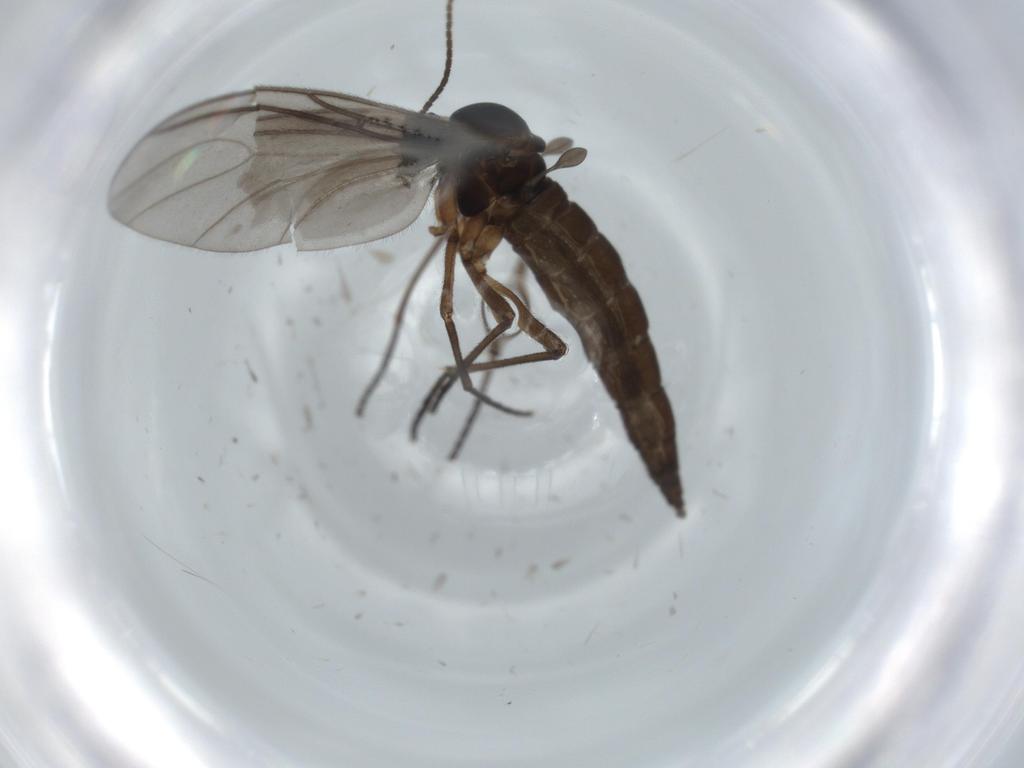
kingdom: Animalia
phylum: Arthropoda
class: Insecta
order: Diptera
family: Sciaridae
